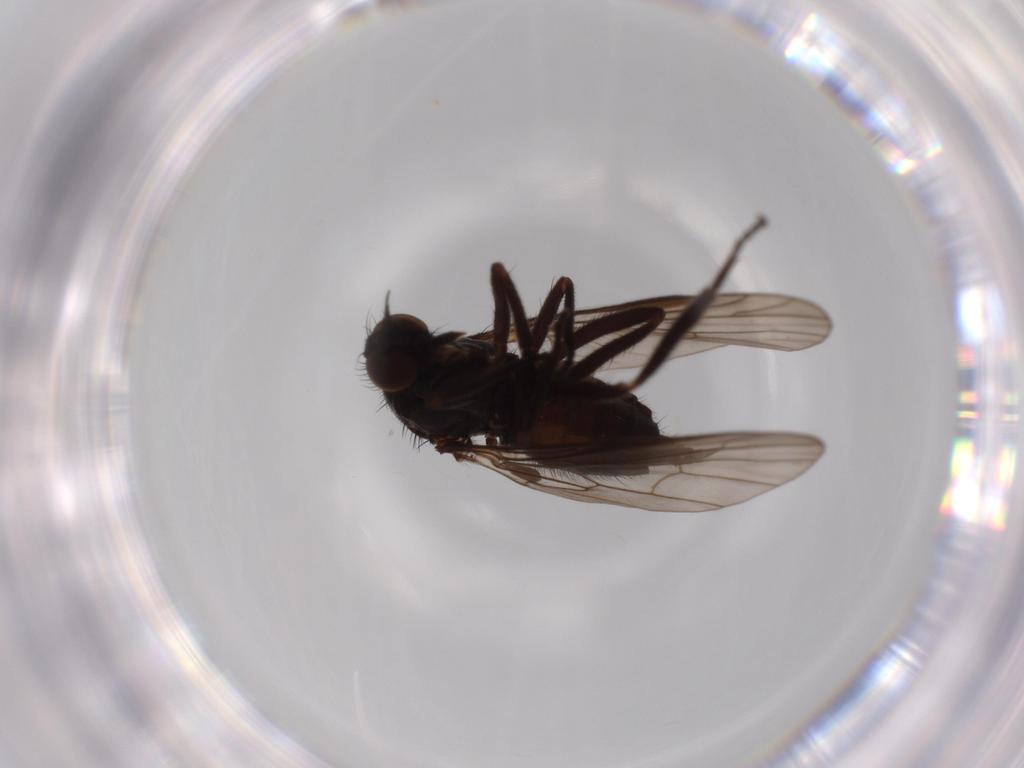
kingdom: Animalia
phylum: Arthropoda
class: Insecta
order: Diptera
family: Empididae
